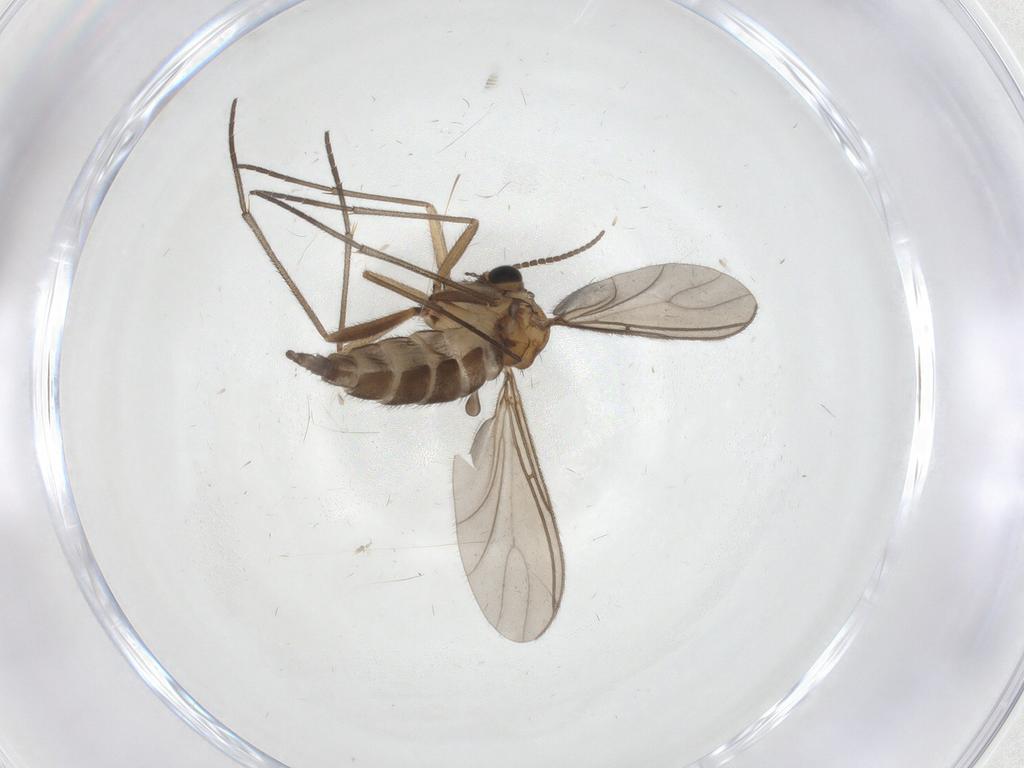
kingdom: Animalia
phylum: Arthropoda
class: Insecta
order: Diptera
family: Sciaridae
